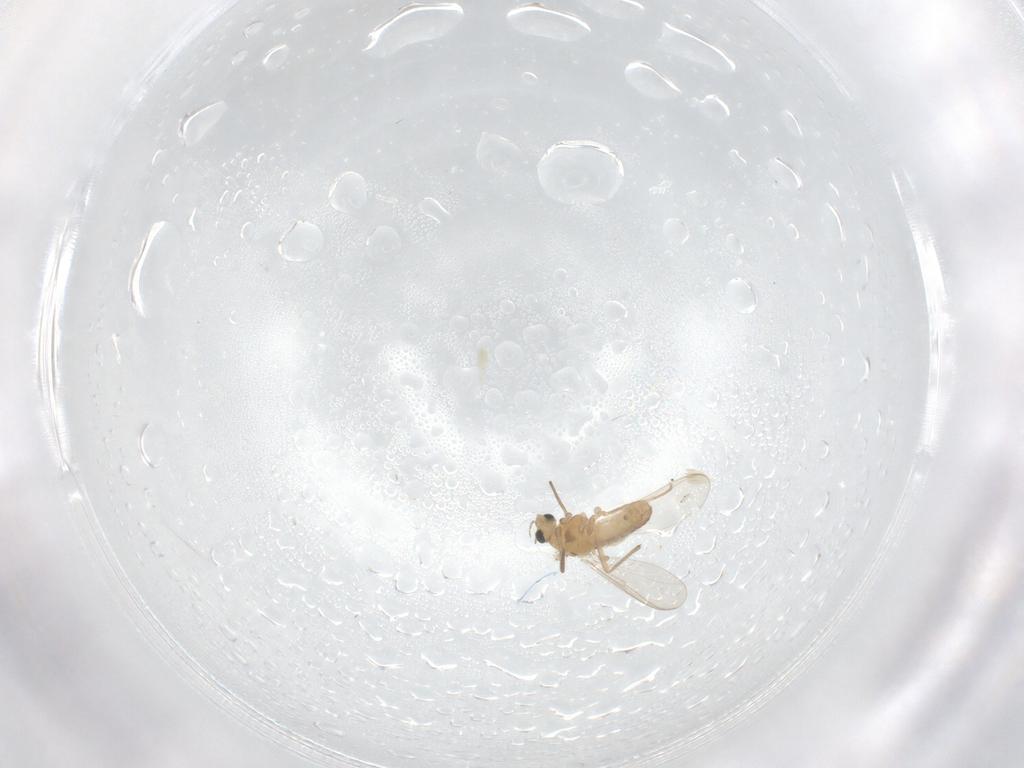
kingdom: Animalia
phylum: Arthropoda
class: Insecta
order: Diptera
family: Chironomidae
